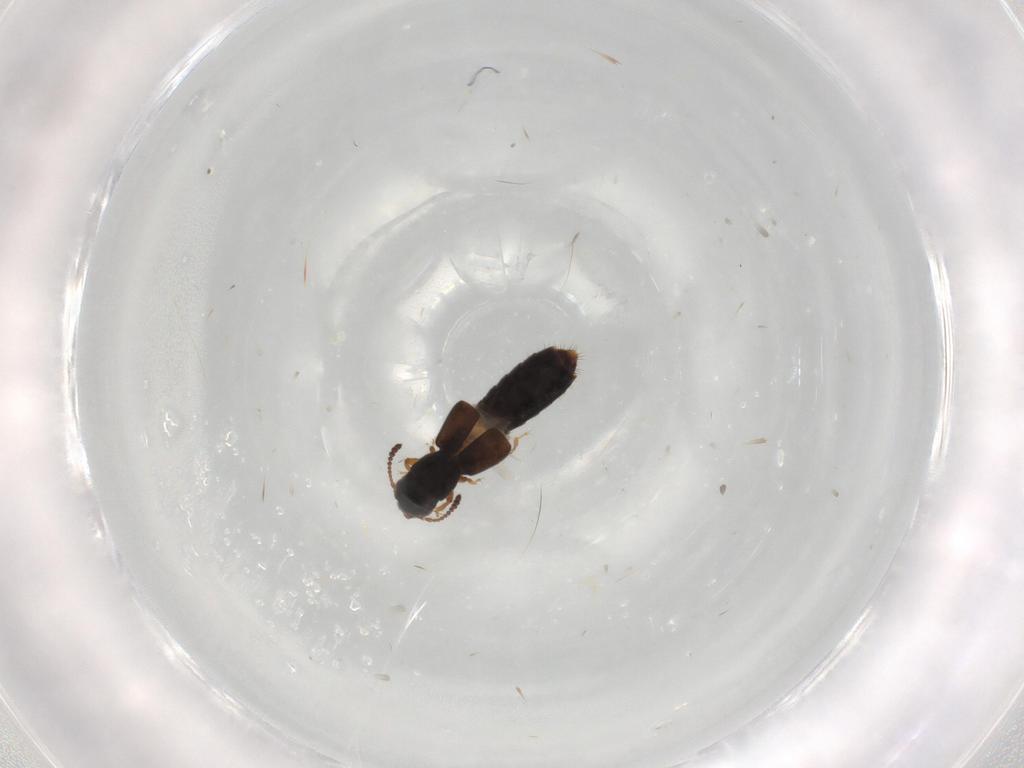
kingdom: Animalia
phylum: Arthropoda
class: Insecta
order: Coleoptera
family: Staphylinidae
